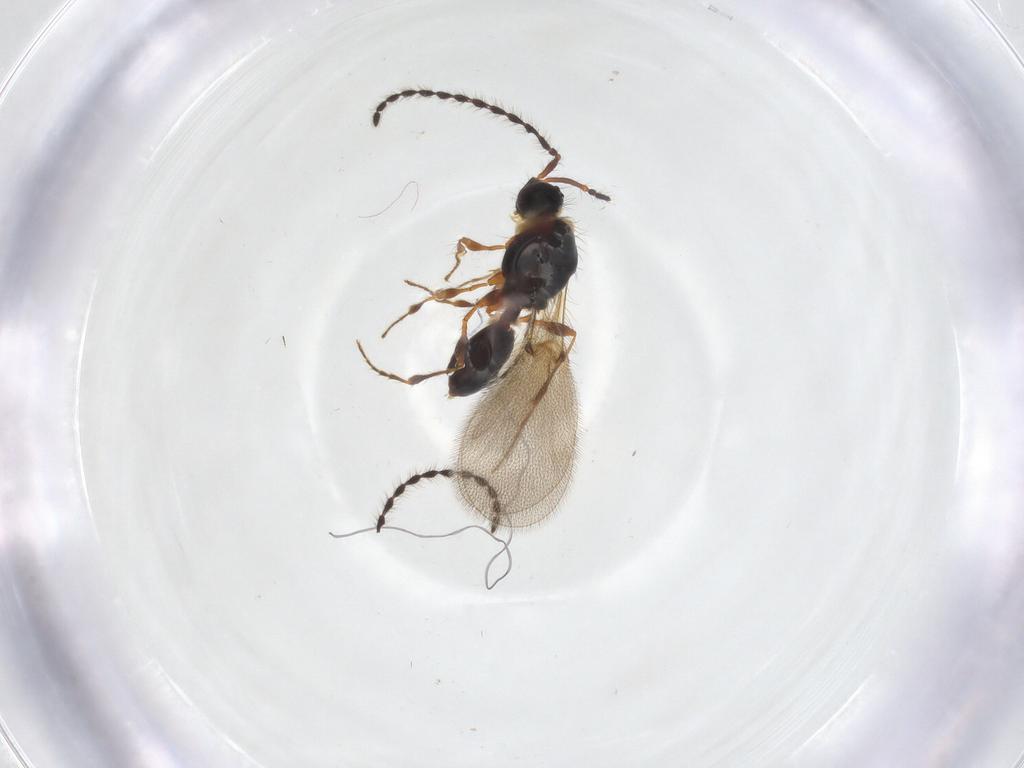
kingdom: Animalia
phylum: Arthropoda
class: Insecta
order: Hymenoptera
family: Diapriidae
